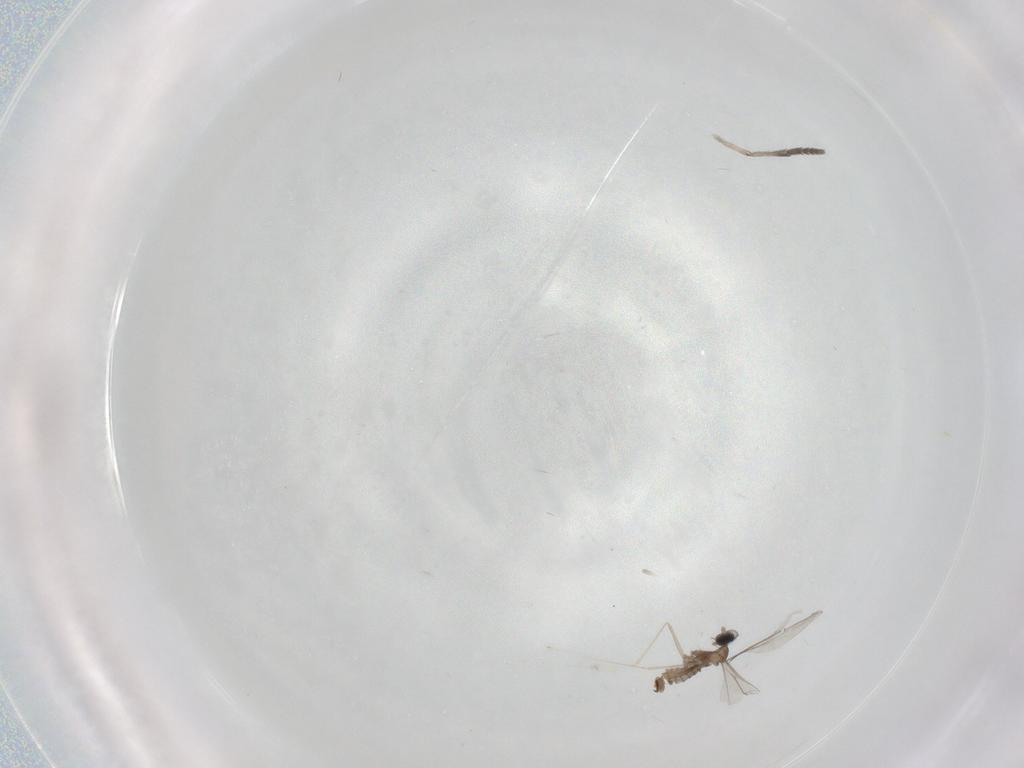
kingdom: Animalia
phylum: Arthropoda
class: Insecta
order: Diptera
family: Cecidomyiidae
